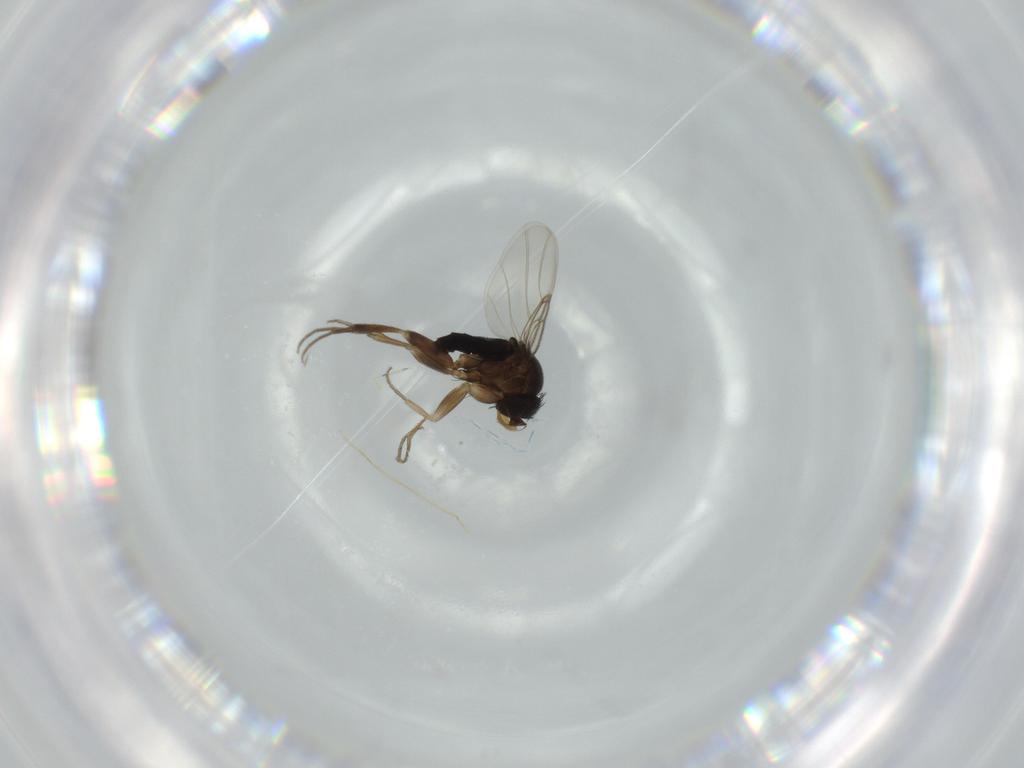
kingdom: Animalia
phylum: Arthropoda
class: Insecta
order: Diptera
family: Phoridae
